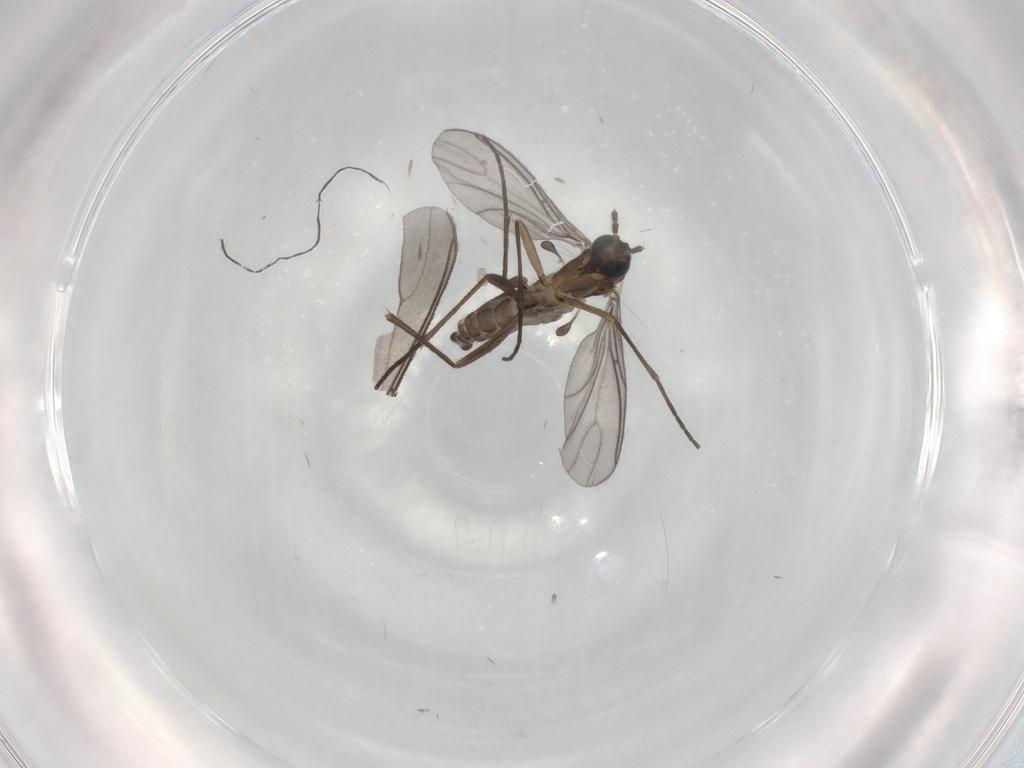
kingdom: Animalia
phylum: Arthropoda
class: Insecta
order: Diptera
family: Sciaridae
